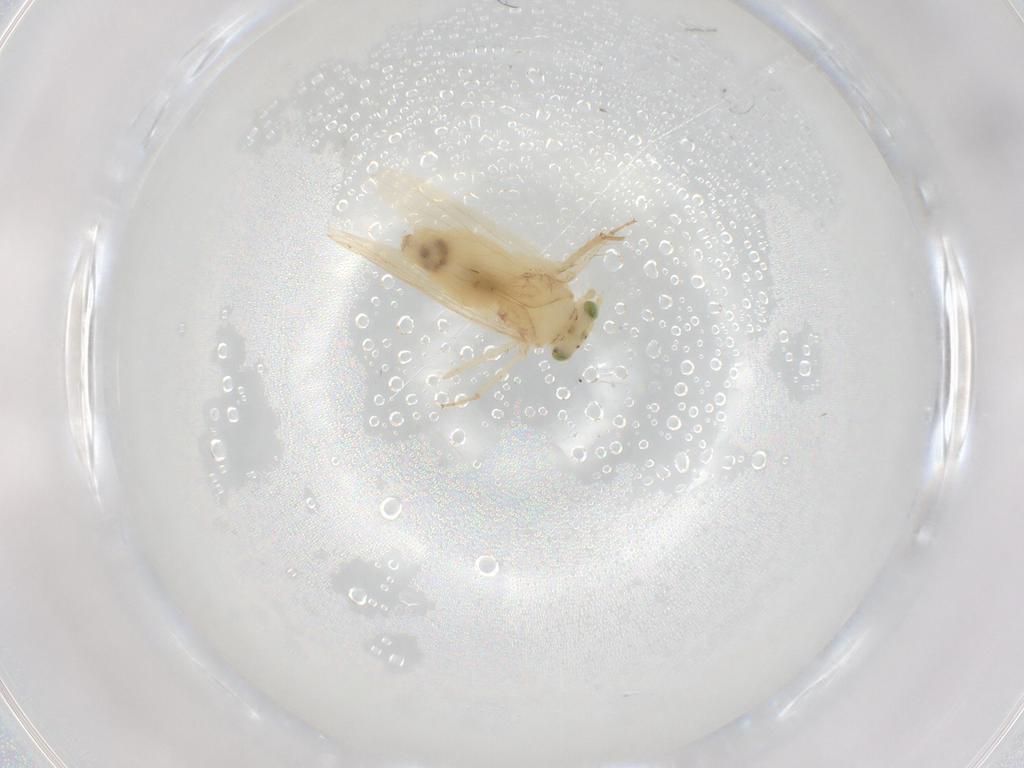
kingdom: Animalia
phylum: Arthropoda
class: Insecta
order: Psocodea
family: Lepidopsocidae
